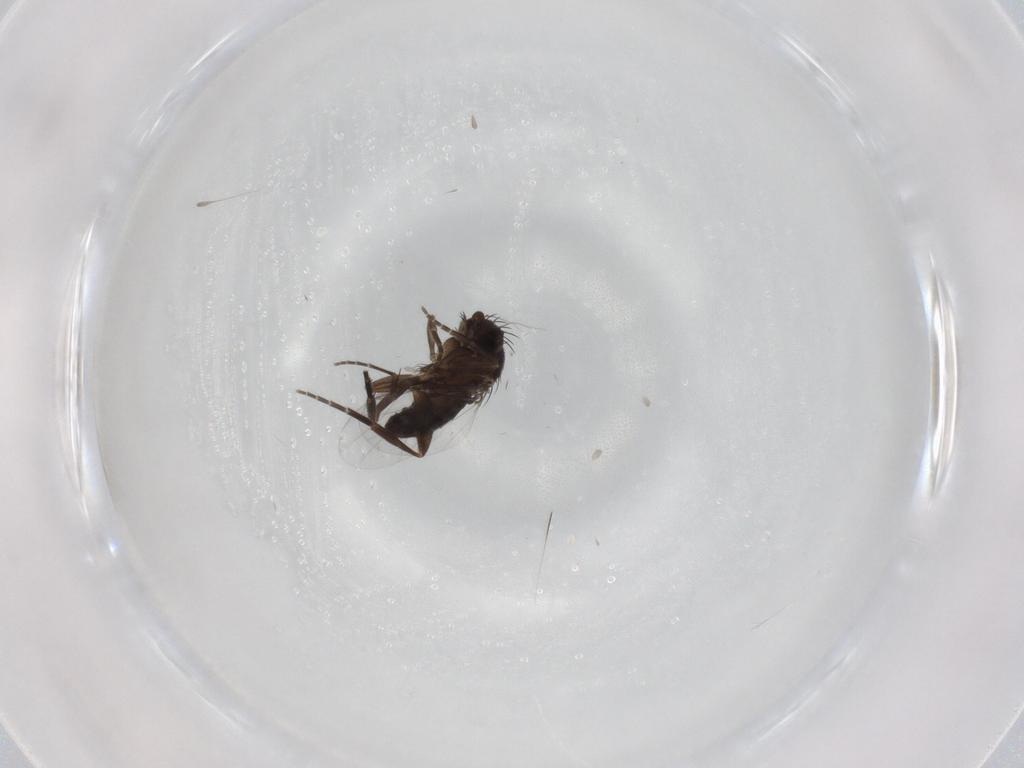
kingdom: Animalia
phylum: Arthropoda
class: Insecta
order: Diptera
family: Phoridae
